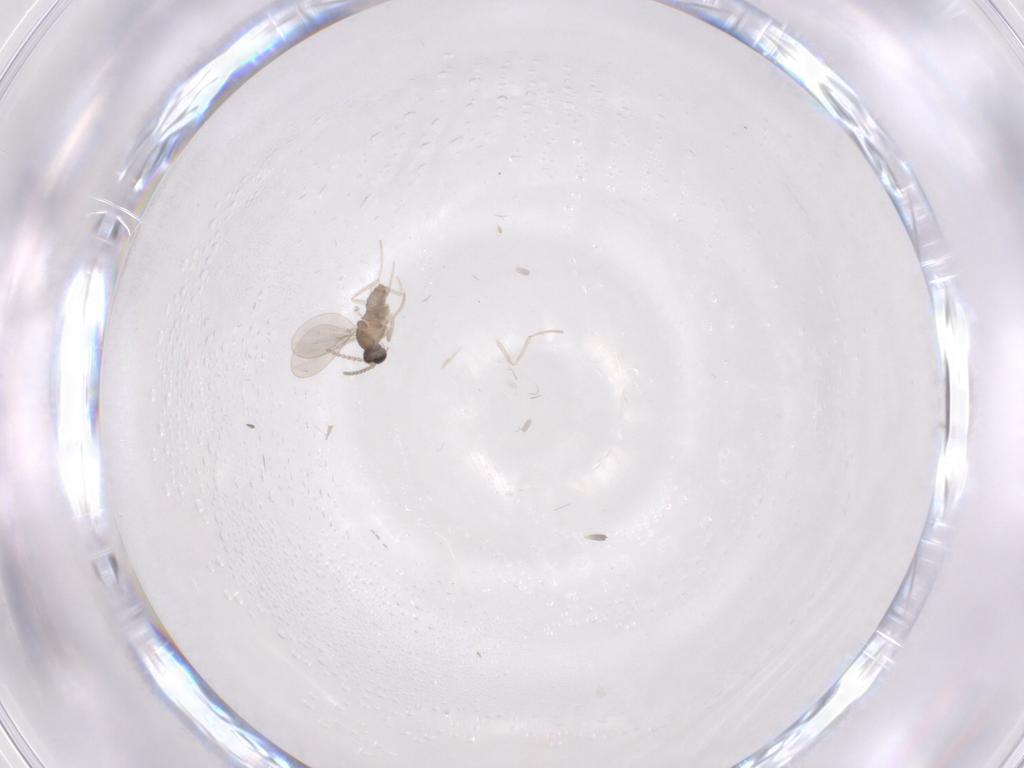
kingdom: Animalia
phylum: Arthropoda
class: Insecta
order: Diptera
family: Cecidomyiidae
